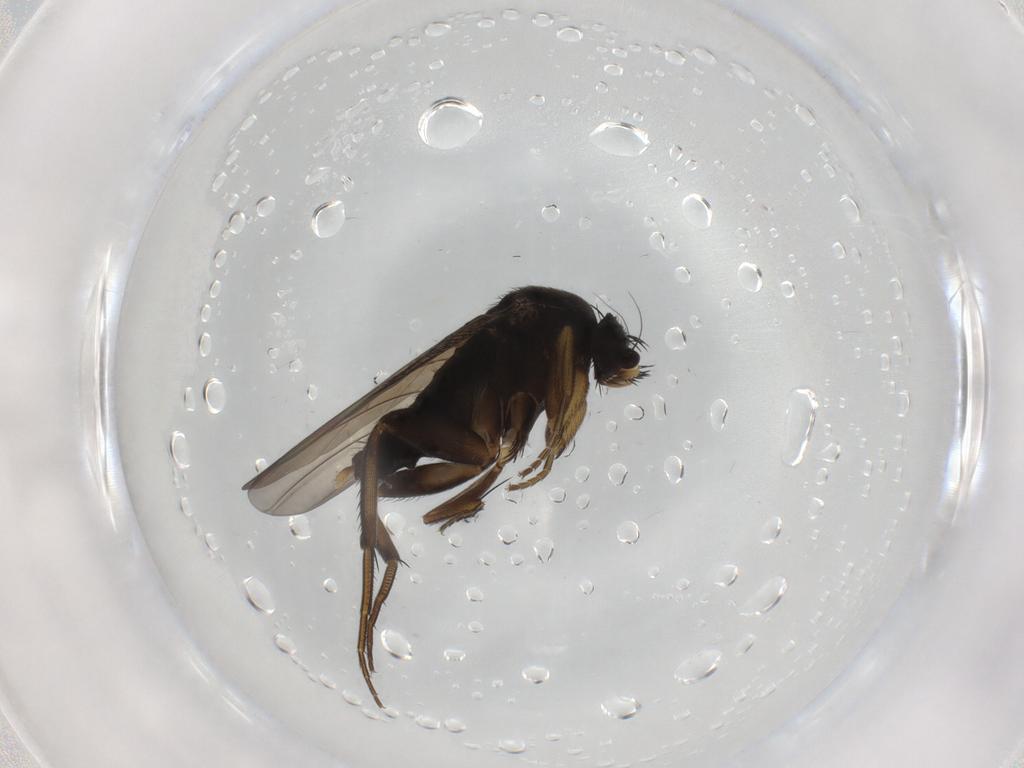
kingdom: Animalia
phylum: Arthropoda
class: Insecta
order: Diptera
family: Phoridae
